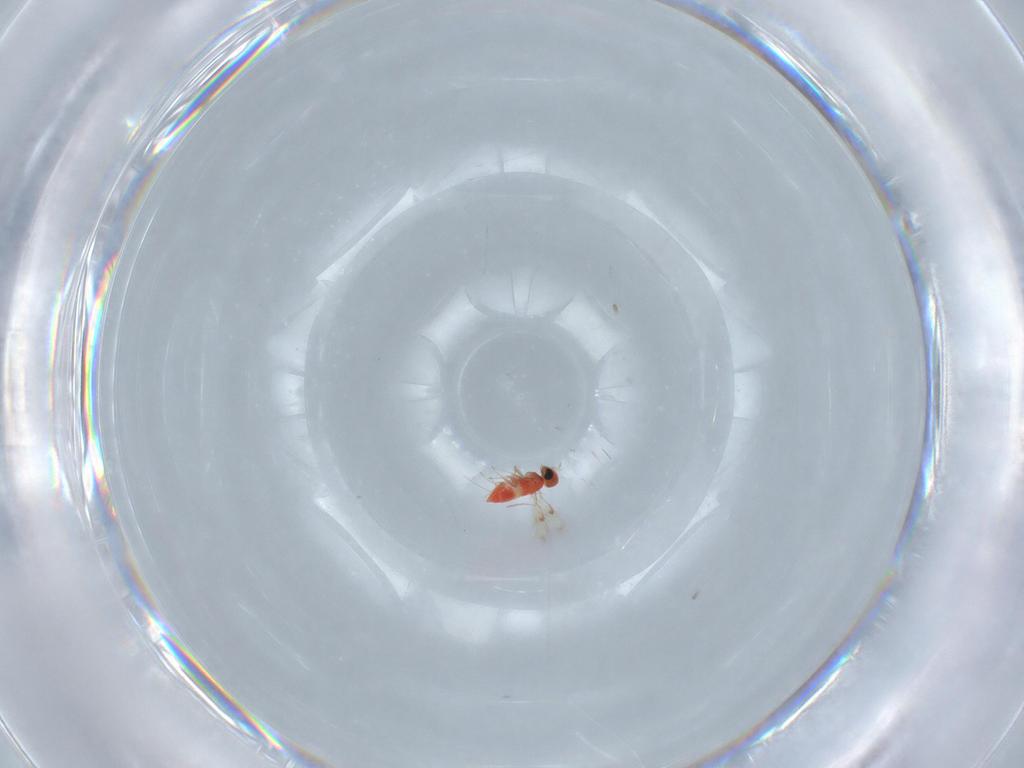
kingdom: Animalia
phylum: Arthropoda
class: Insecta
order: Hymenoptera
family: Trichogrammatidae
